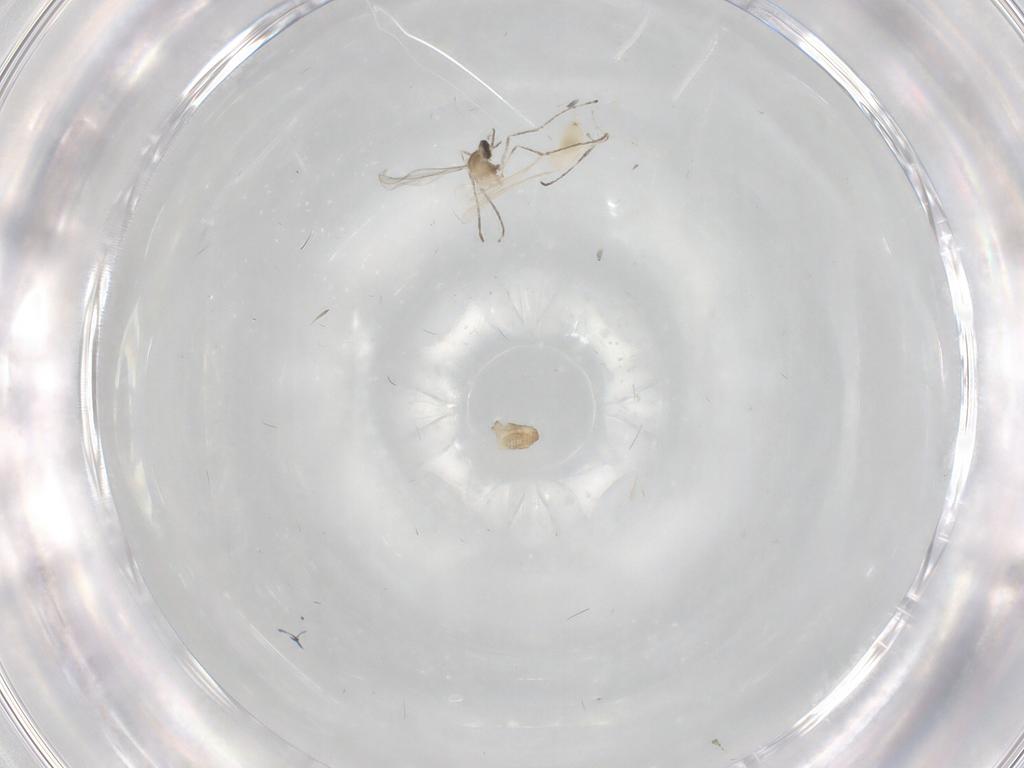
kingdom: Animalia
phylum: Arthropoda
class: Insecta
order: Diptera
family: Cecidomyiidae
